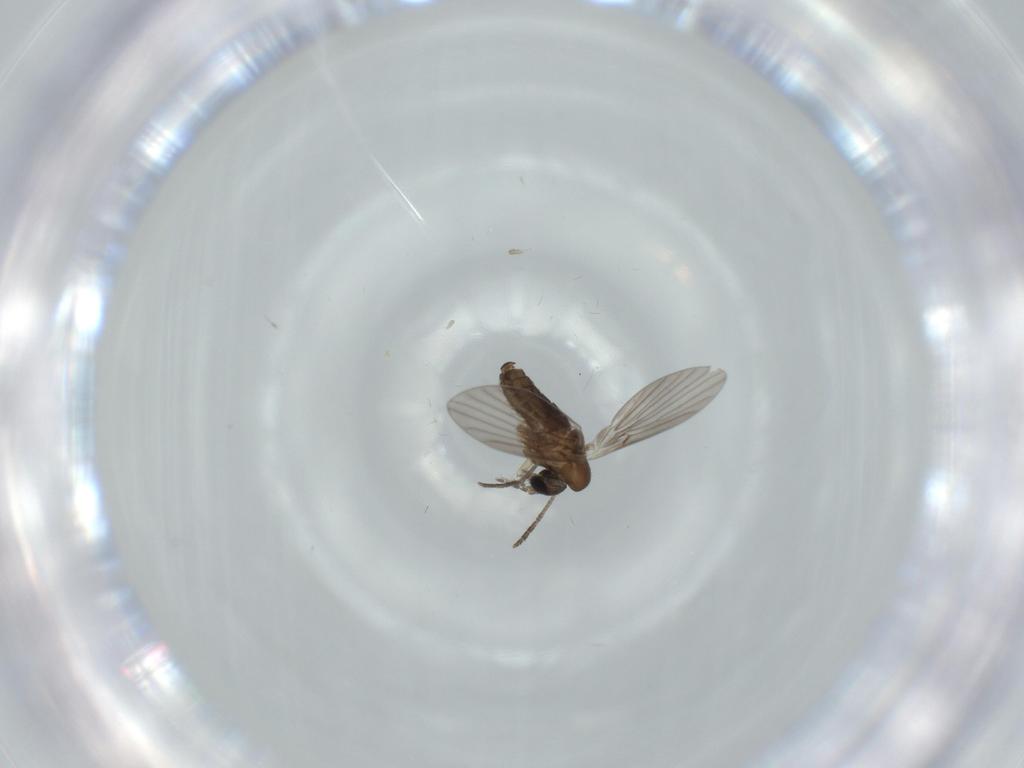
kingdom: Animalia
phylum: Arthropoda
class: Insecta
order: Diptera
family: Psychodidae
